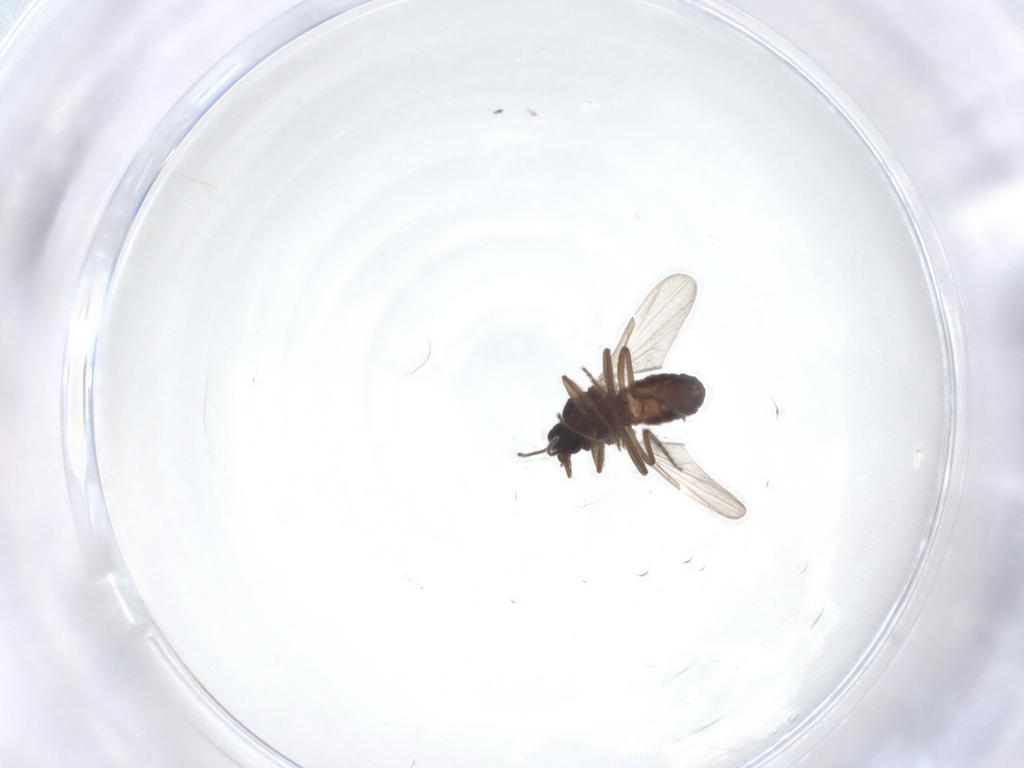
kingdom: Animalia
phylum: Arthropoda
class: Insecta
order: Diptera
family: Ceratopogonidae
